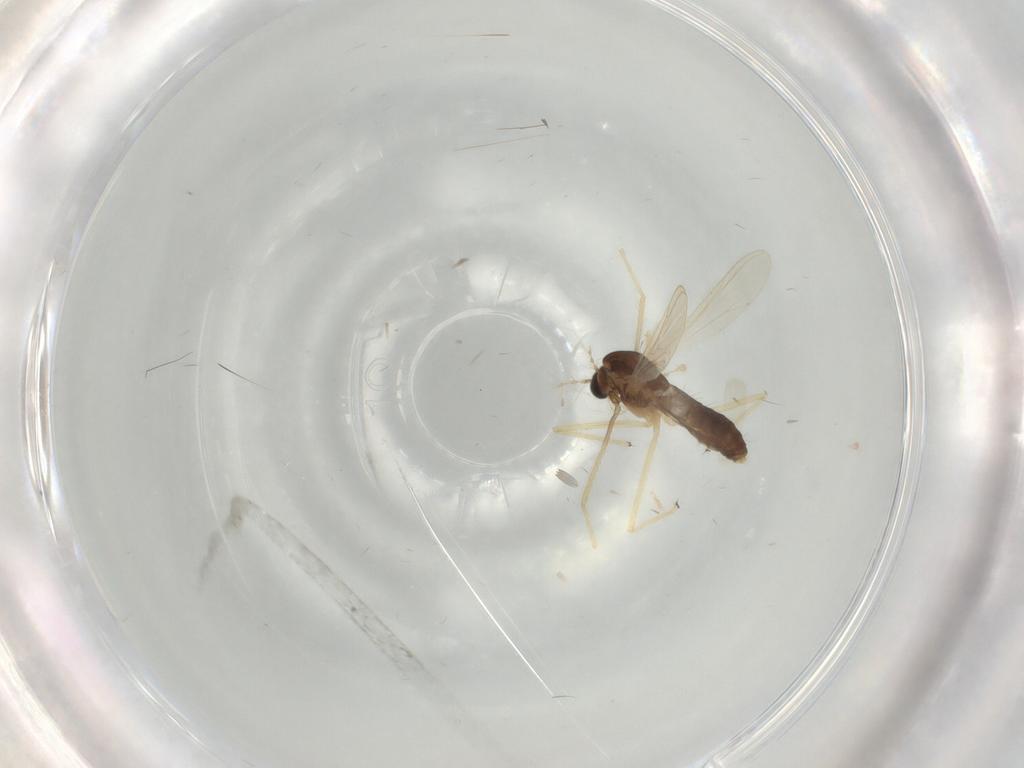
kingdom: Animalia
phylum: Arthropoda
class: Insecta
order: Diptera
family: Chironomidae
